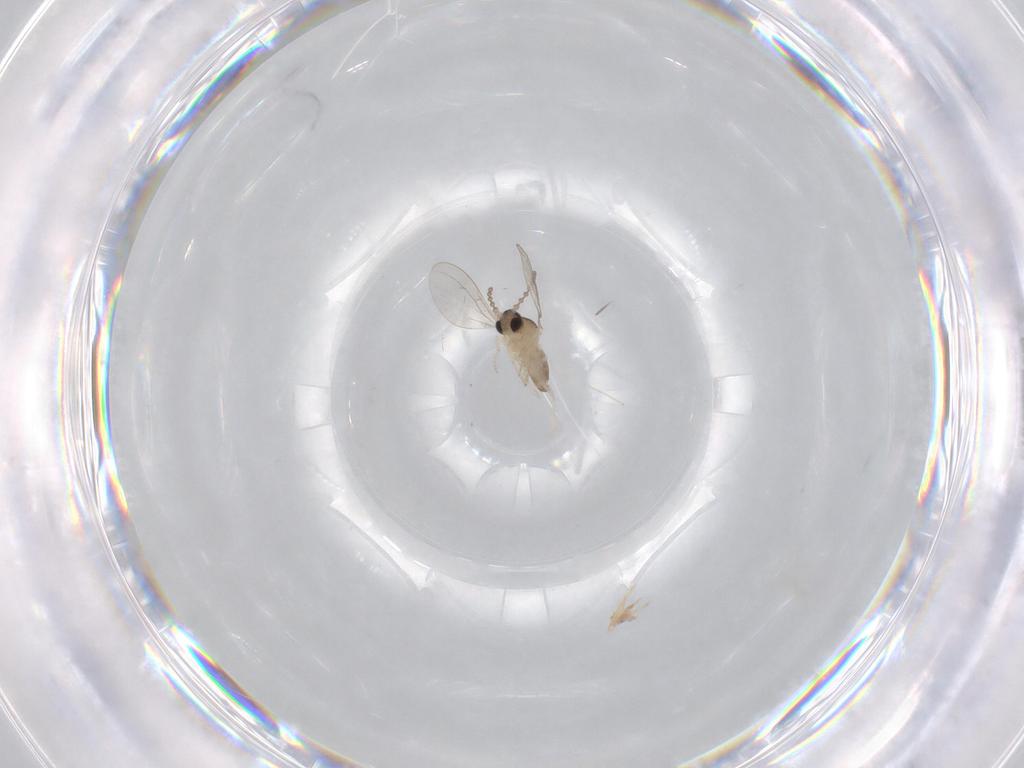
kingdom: Animalia
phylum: Arthropoda
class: Insecta
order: Diptera
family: Cecidomyiidae
